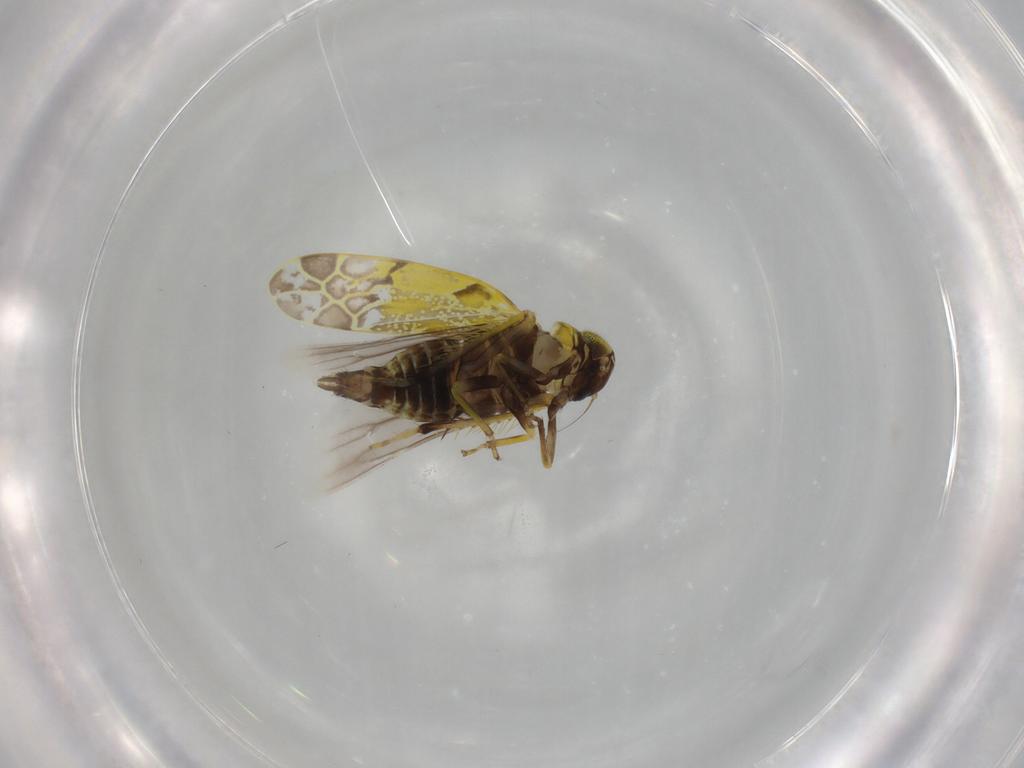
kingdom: Animalia
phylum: Arthropoda
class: Insecta
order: Hemiptera
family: Cicadellidae
